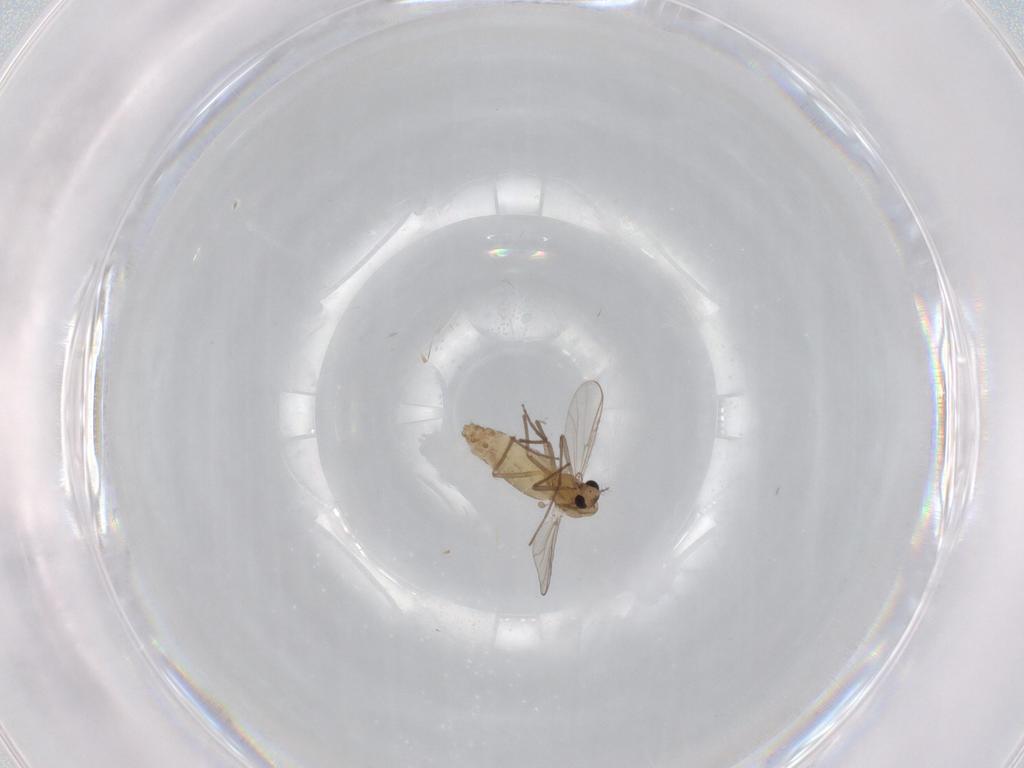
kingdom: Animalia
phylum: Arthropoda
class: Insecta
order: Diptera
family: Chironomidae
